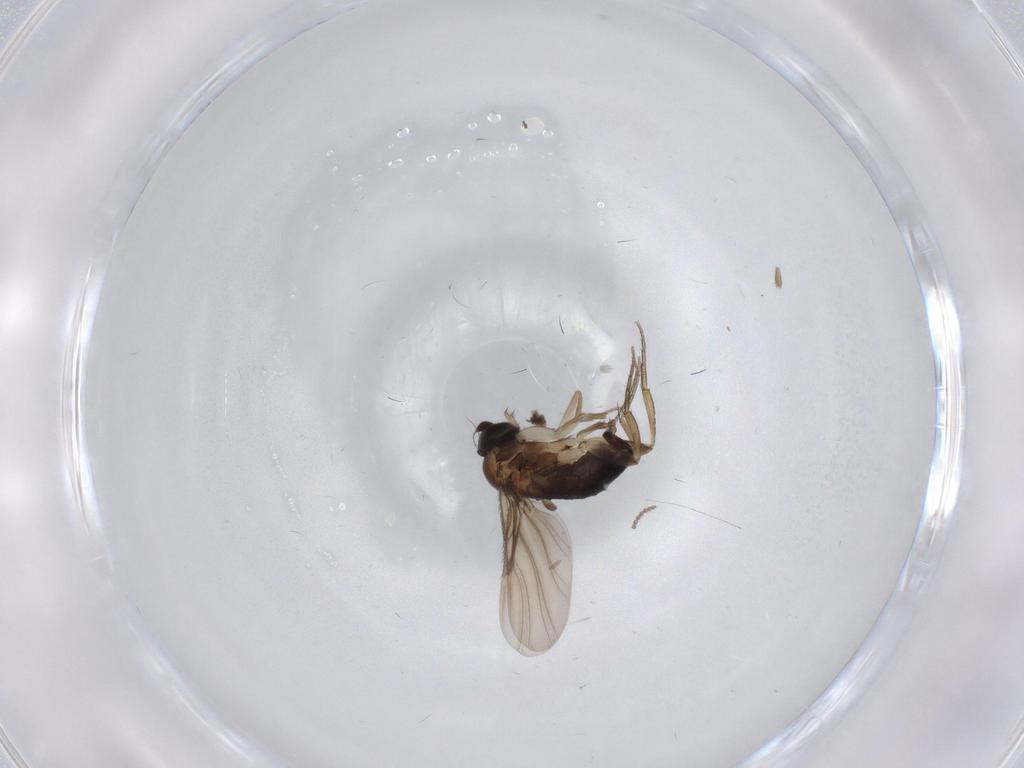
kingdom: Animalia
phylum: Arthropoda
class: Insecta
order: Diptera
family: Phoridae
